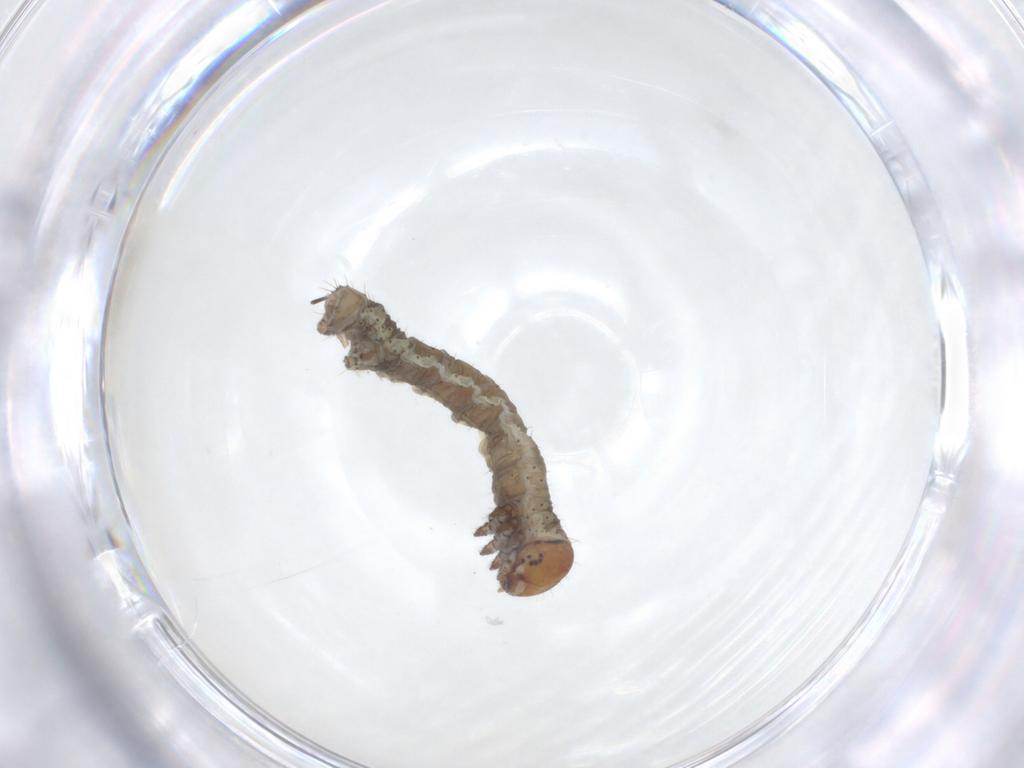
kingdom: Animalia
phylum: Arthropoda
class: Insecta
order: Lepidoptera
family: Geometridae
